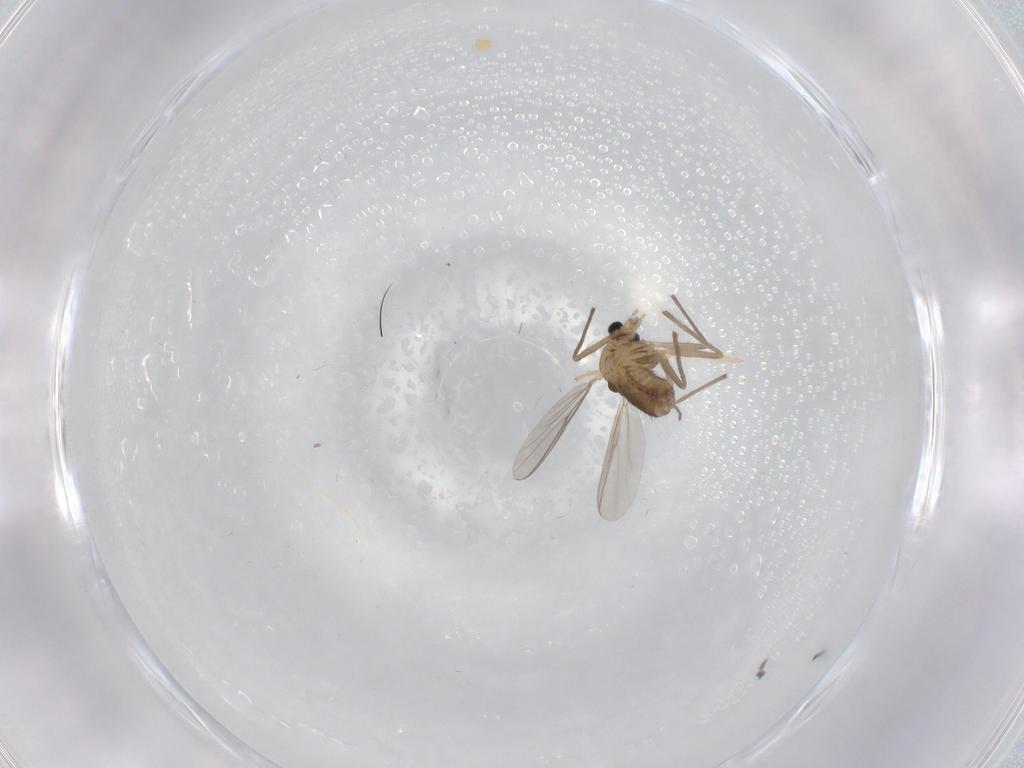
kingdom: Animalia
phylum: Arthropoda
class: Insecta
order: Diptera
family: Chironomidae
